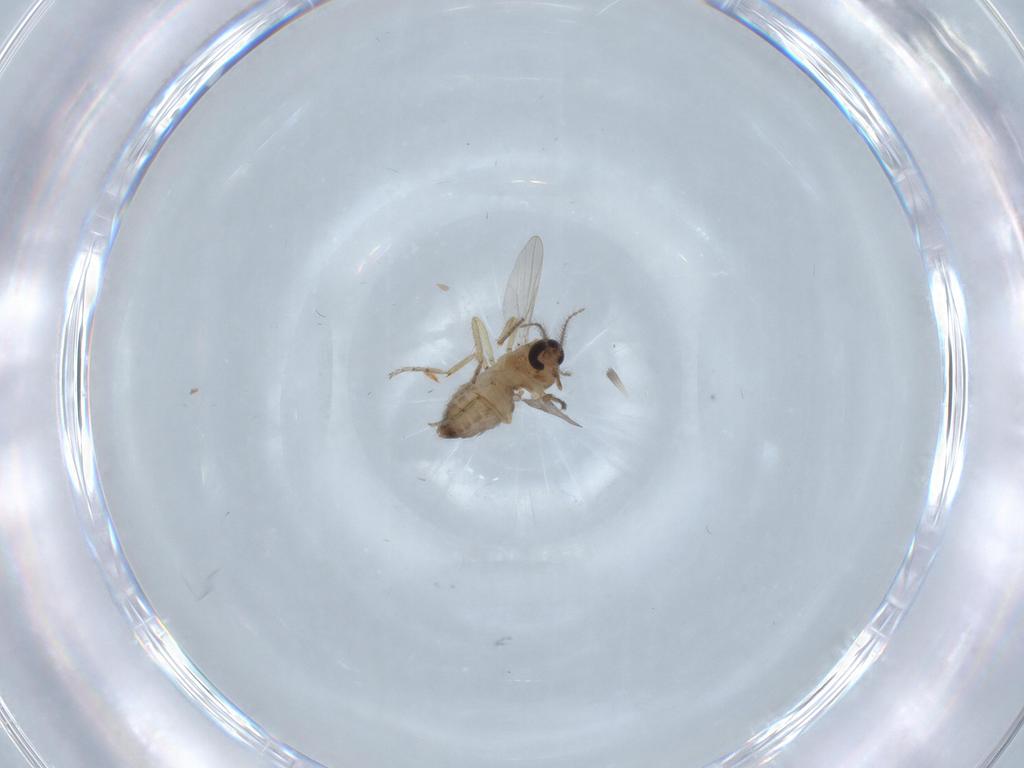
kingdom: Animalia
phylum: Arthropoda
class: Insecta
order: Diptera
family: Ceratopogonidae
